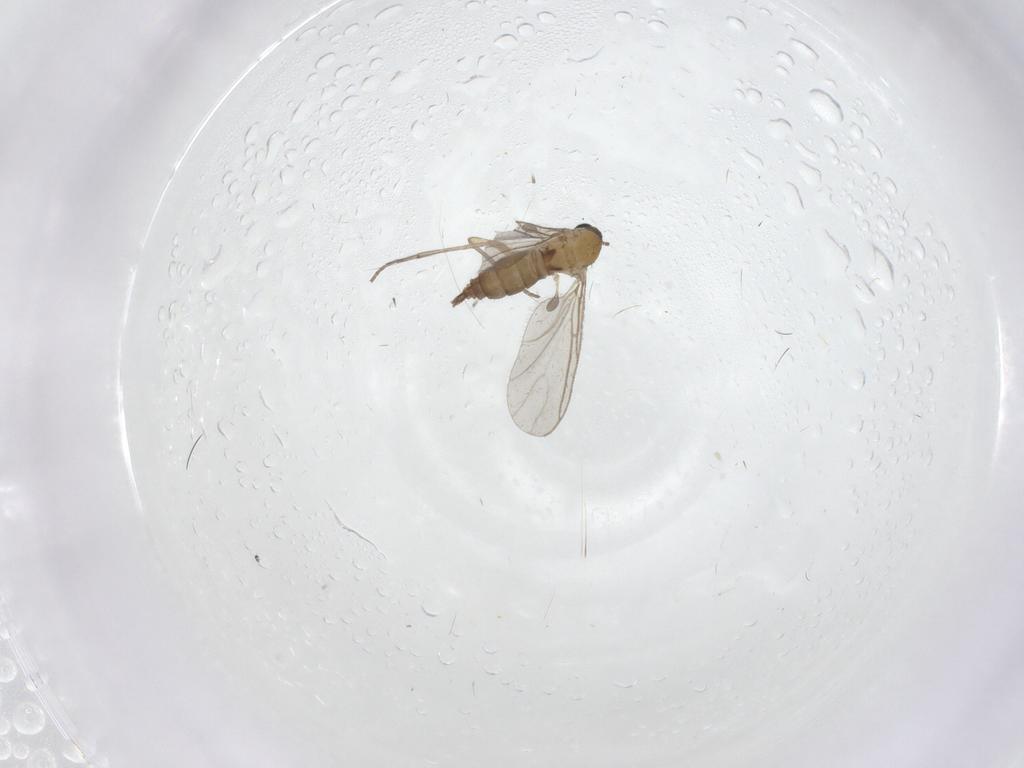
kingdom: Animalia
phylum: Arthropoda
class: Insecta
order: Diptera
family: Sciaridae
